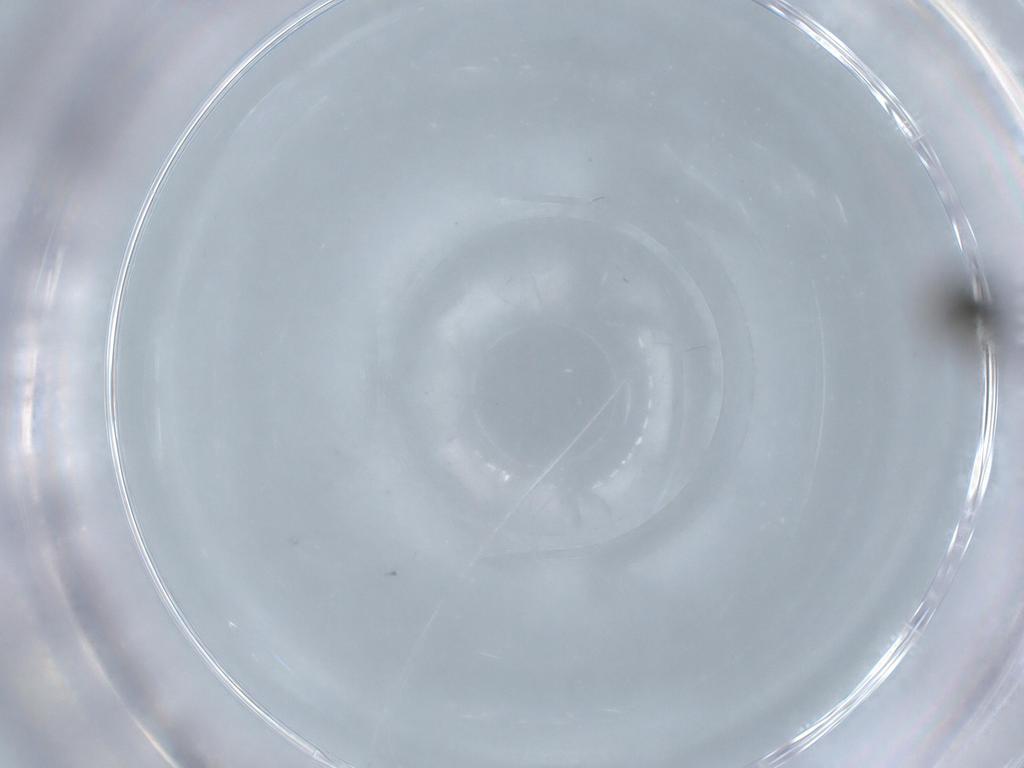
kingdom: Animalia
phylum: Arthropoda
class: Insecta
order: Diptera
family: Ceratopogonidae
